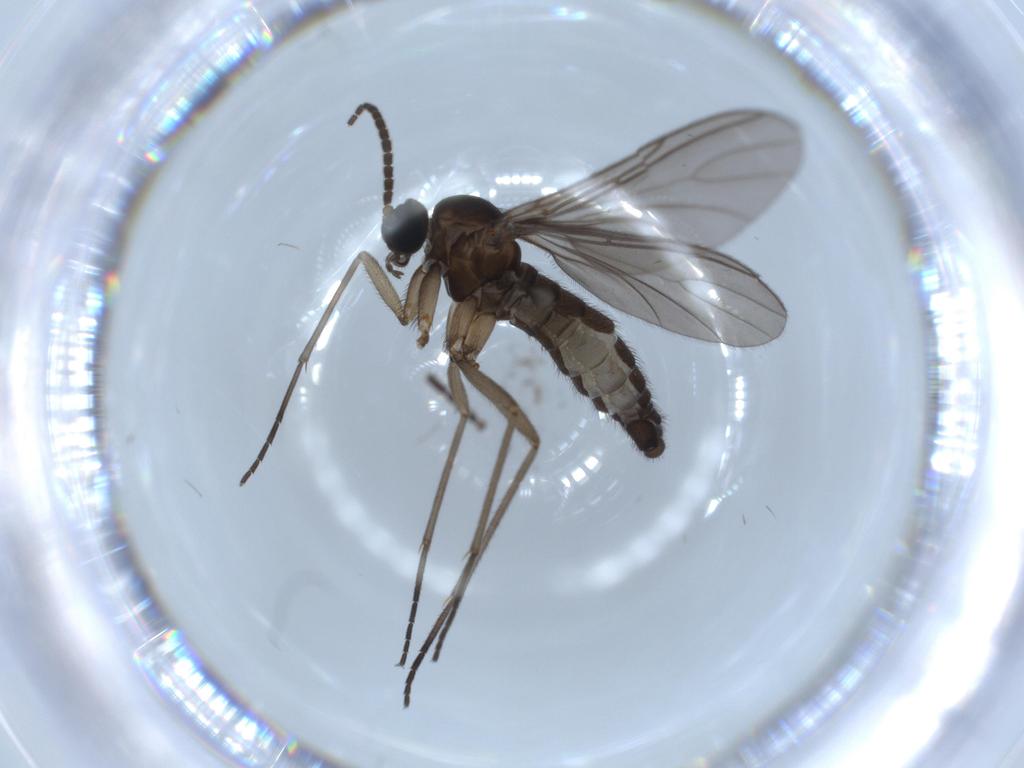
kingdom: Animalia
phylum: Arthropoda
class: Insecta
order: Diptera
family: Sciaridae
